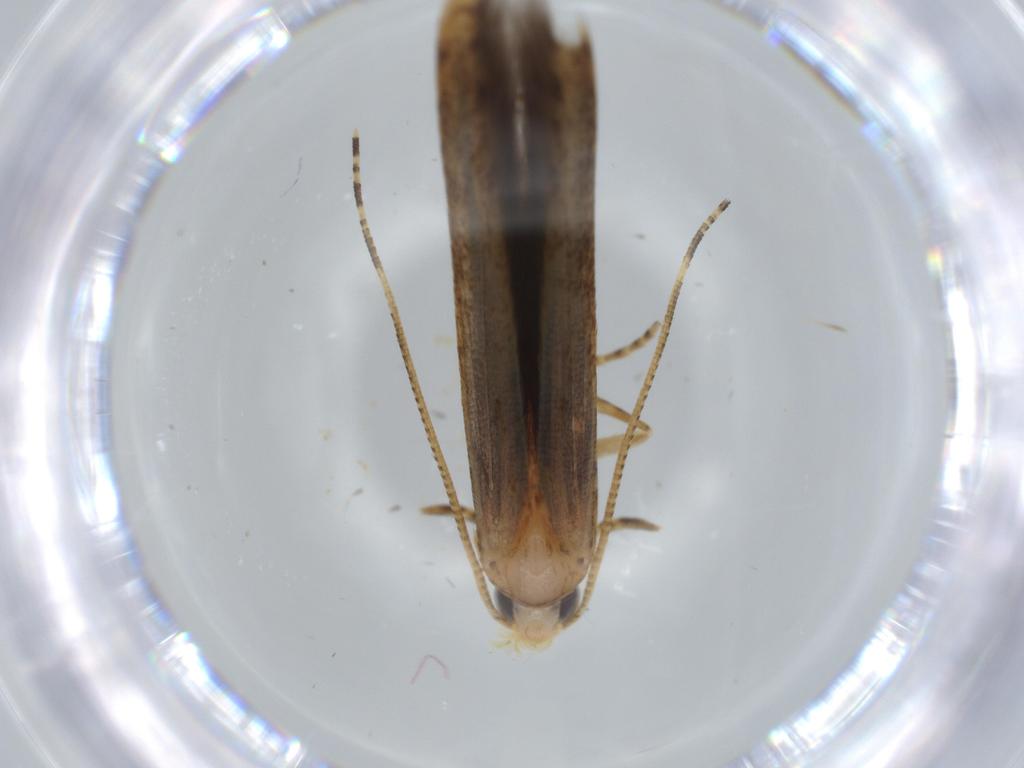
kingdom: Animalia
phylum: Arthropoda
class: Insecta
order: Lepidoptera
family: Batrachedridae
